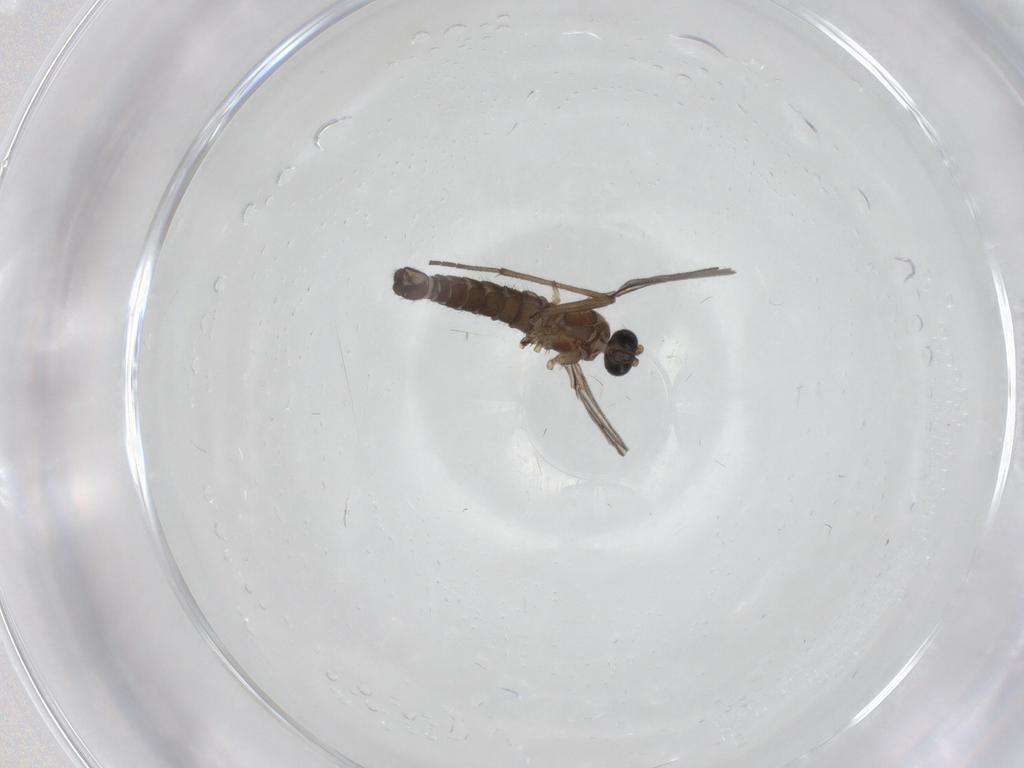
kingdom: Animalia
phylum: Arthropoda
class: Insecta
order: Diptera
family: Sciaridae
